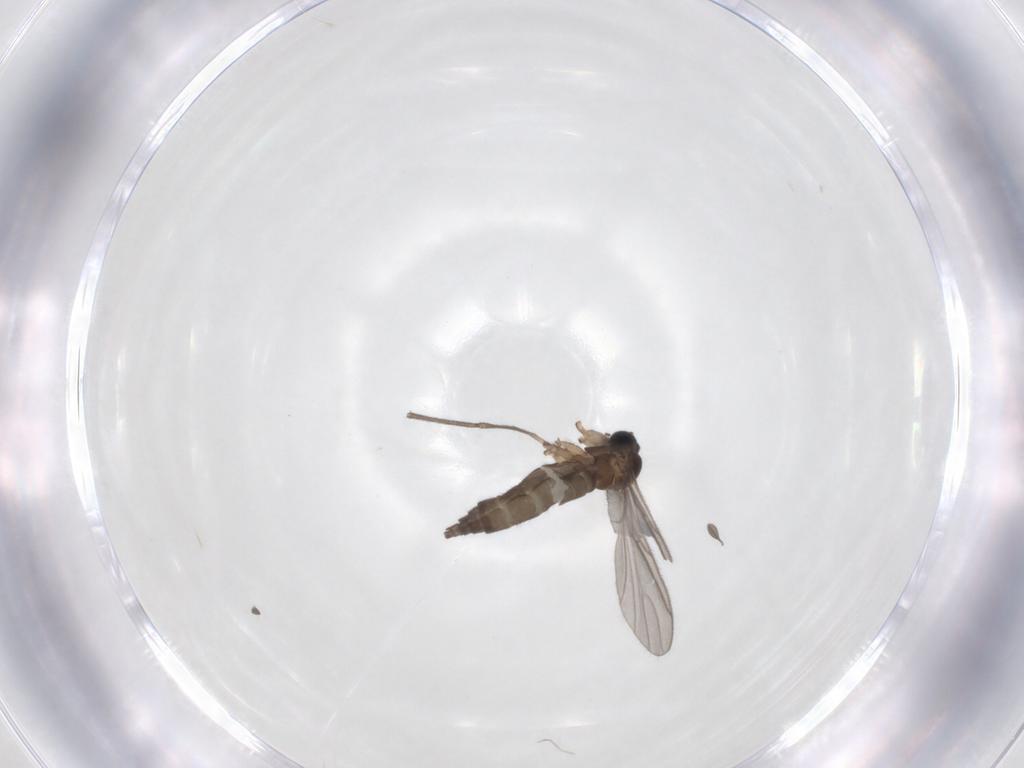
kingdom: Animalia
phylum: Arthropoda
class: Insecta
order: Diptera
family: Sciaridae
